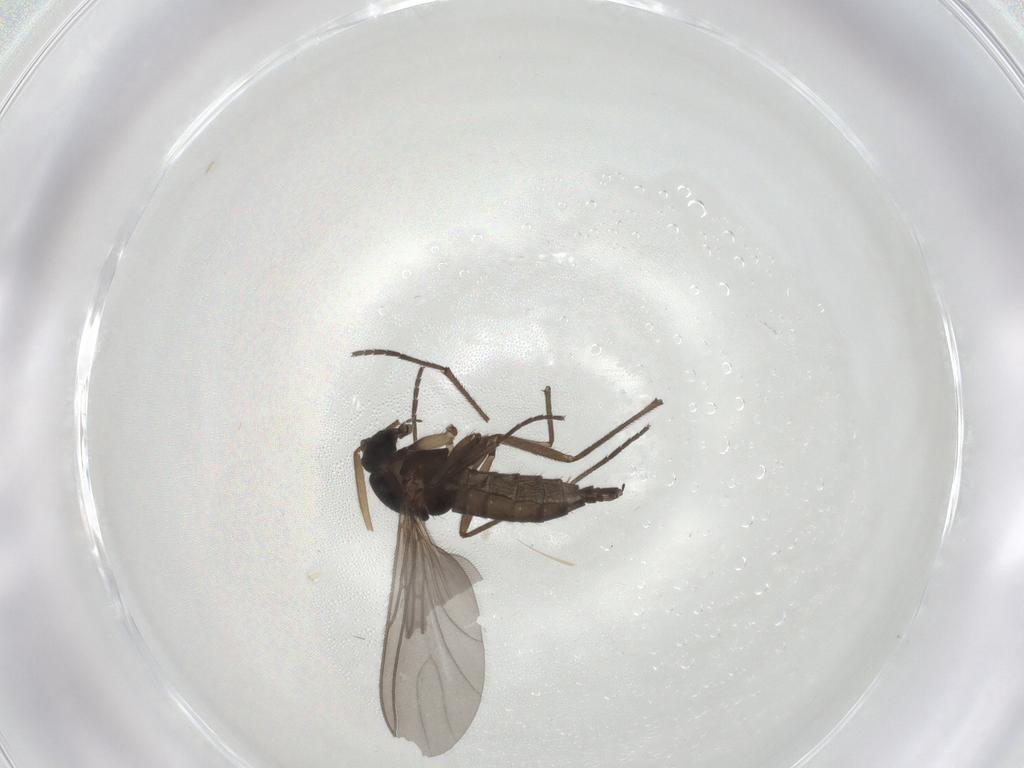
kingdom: Animalia
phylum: Arthropoda
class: Insecta
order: Diptera
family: Sciaridae
